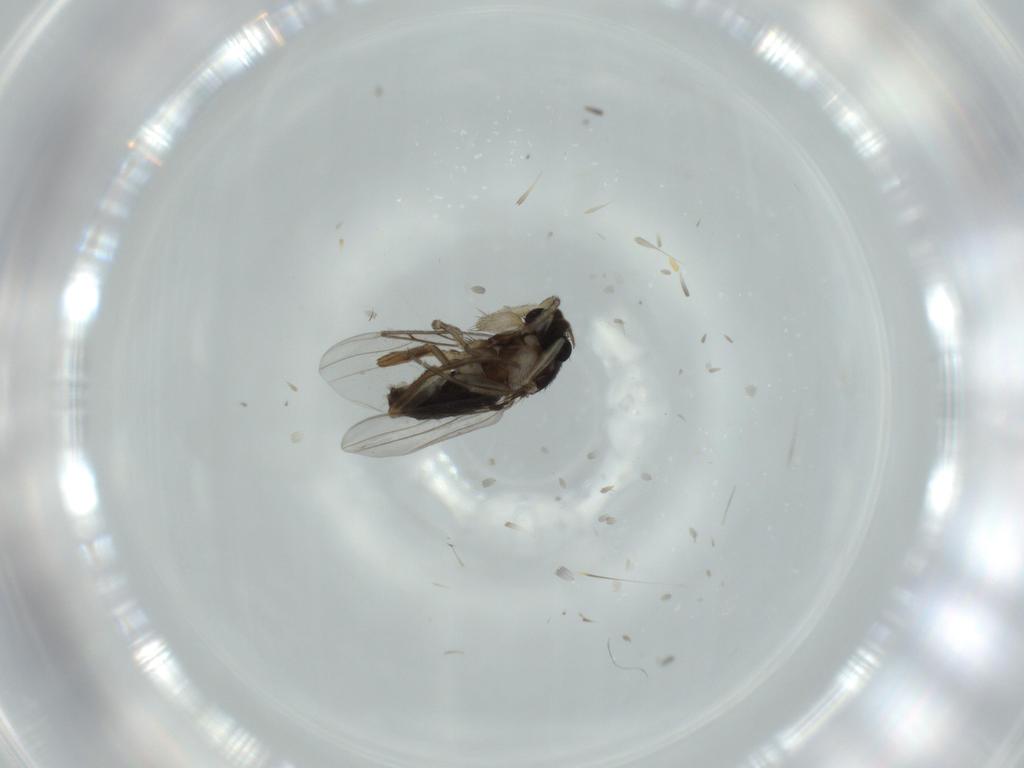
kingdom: Animalia
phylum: Arthropoda
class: Insecta
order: Diptera
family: Phoridae
